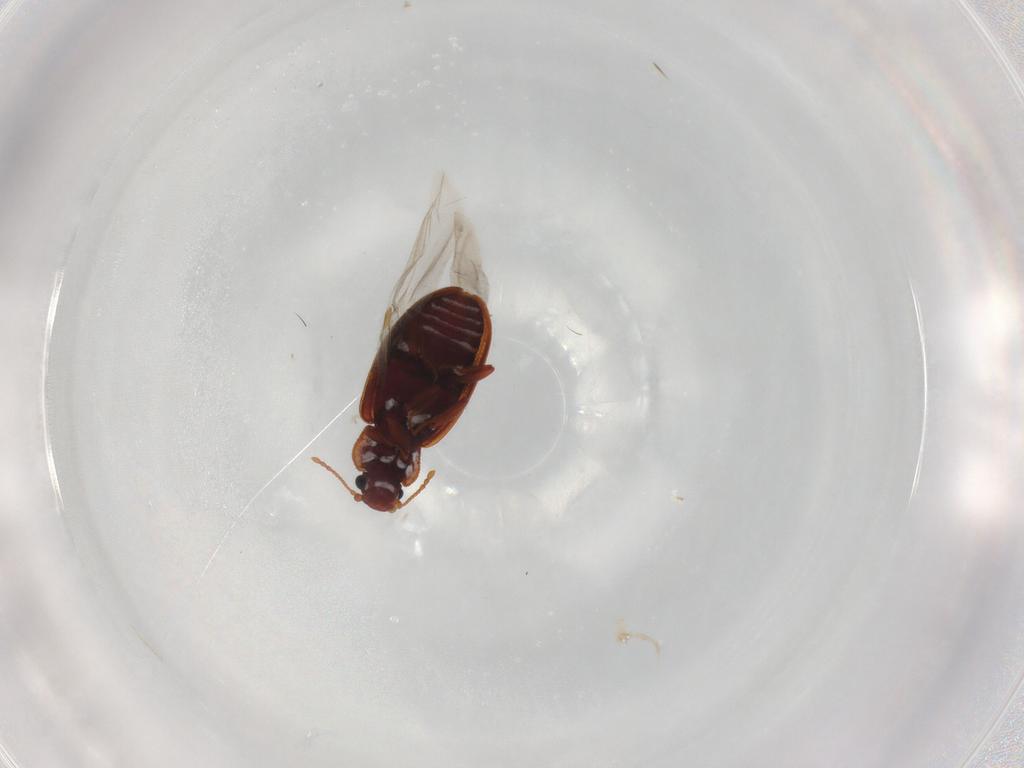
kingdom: Animalia
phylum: Arthropoda
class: Insecta
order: Coleoptera
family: Coccinellidae
